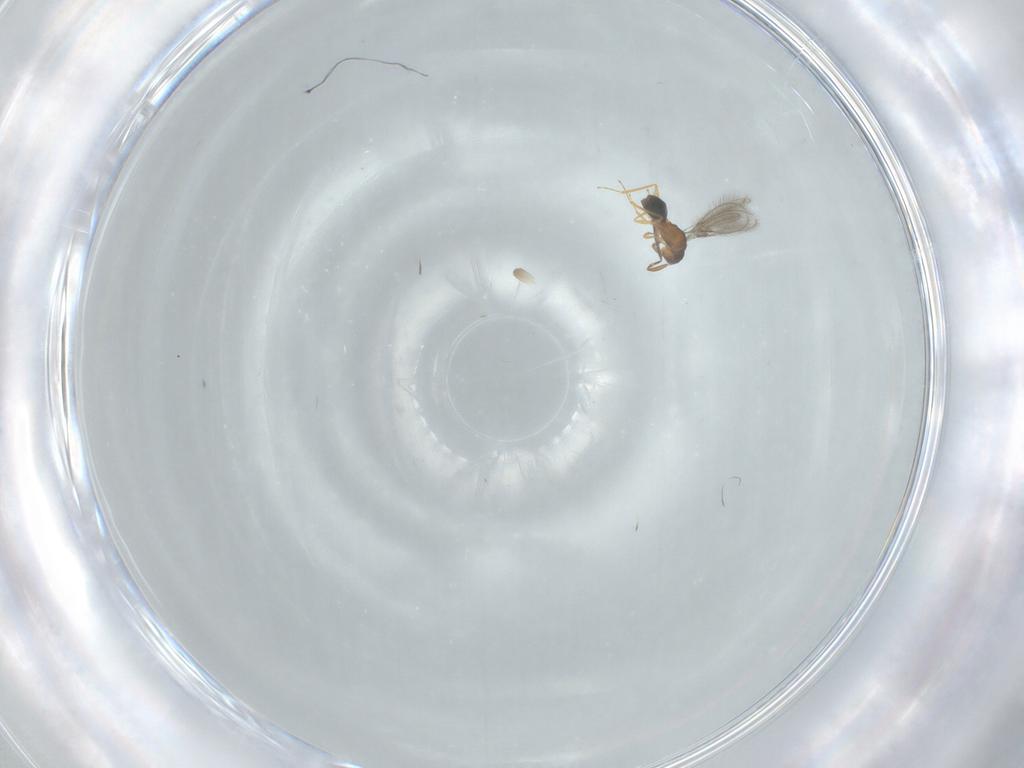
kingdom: Animalia
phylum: Arthropoda
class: Insecta
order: Hymenoptera
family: Mymaridae
